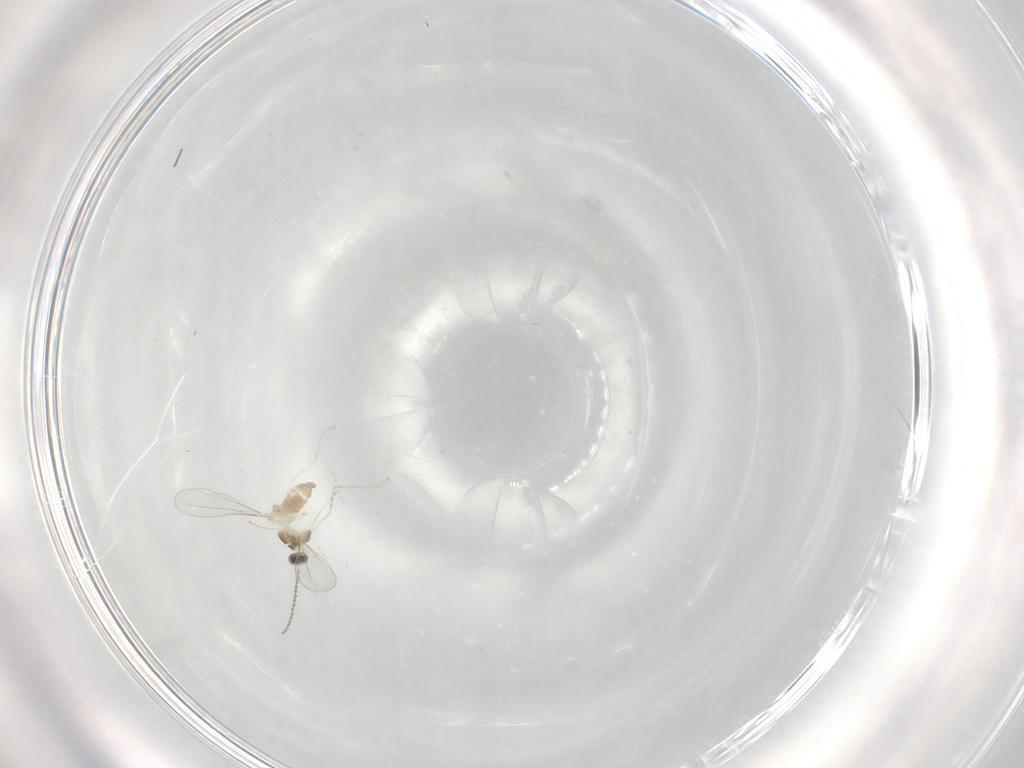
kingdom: Animalia
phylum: Arthropoda
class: Insecta
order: Diptera
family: Cecidomyiidae
